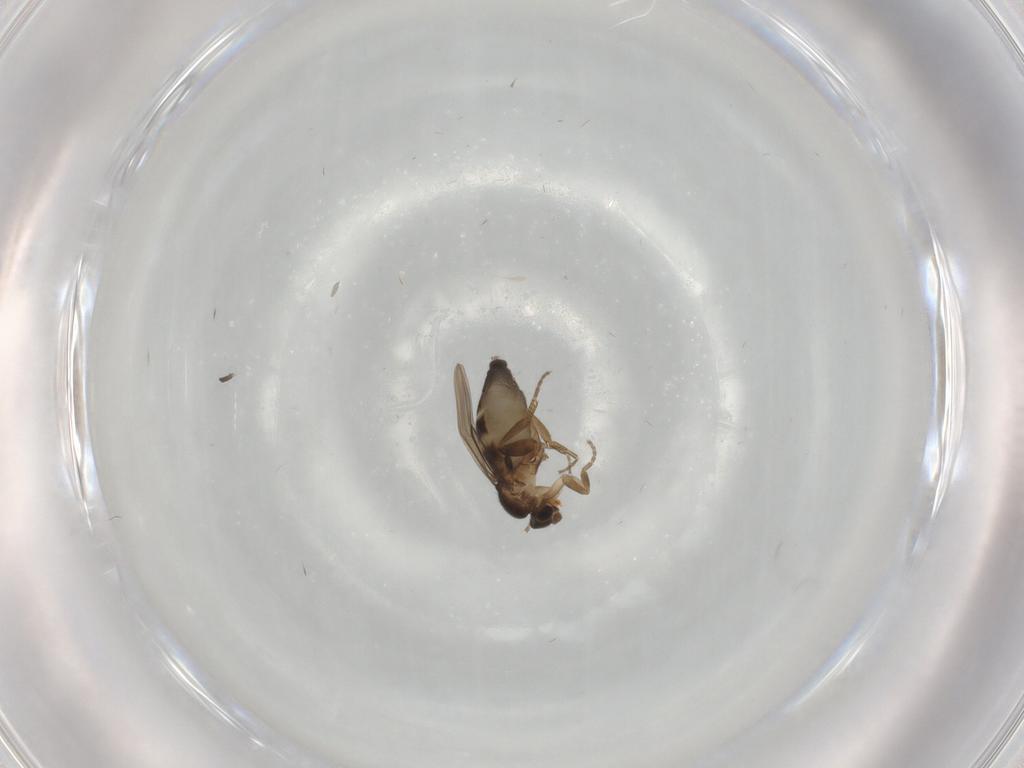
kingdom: Animalia
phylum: Arthropoda
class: Insecta
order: Diptera
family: Phoridae
